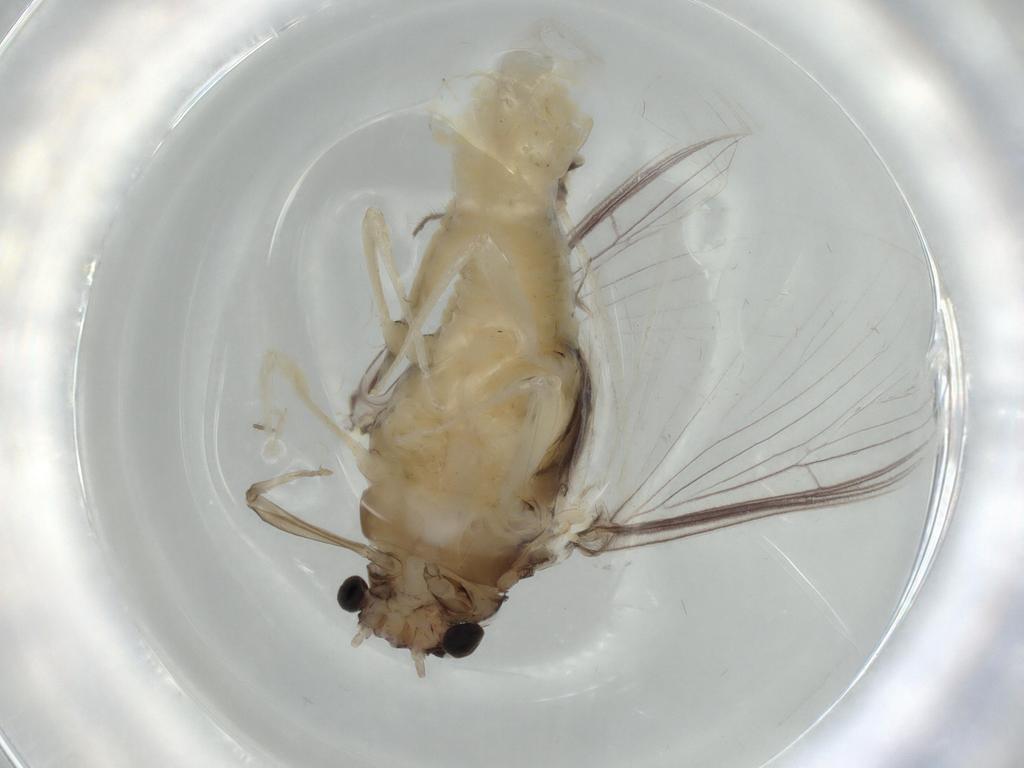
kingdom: Animalia
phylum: Arthropoda
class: Insecta
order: Ephemeroptera
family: Caenidae
